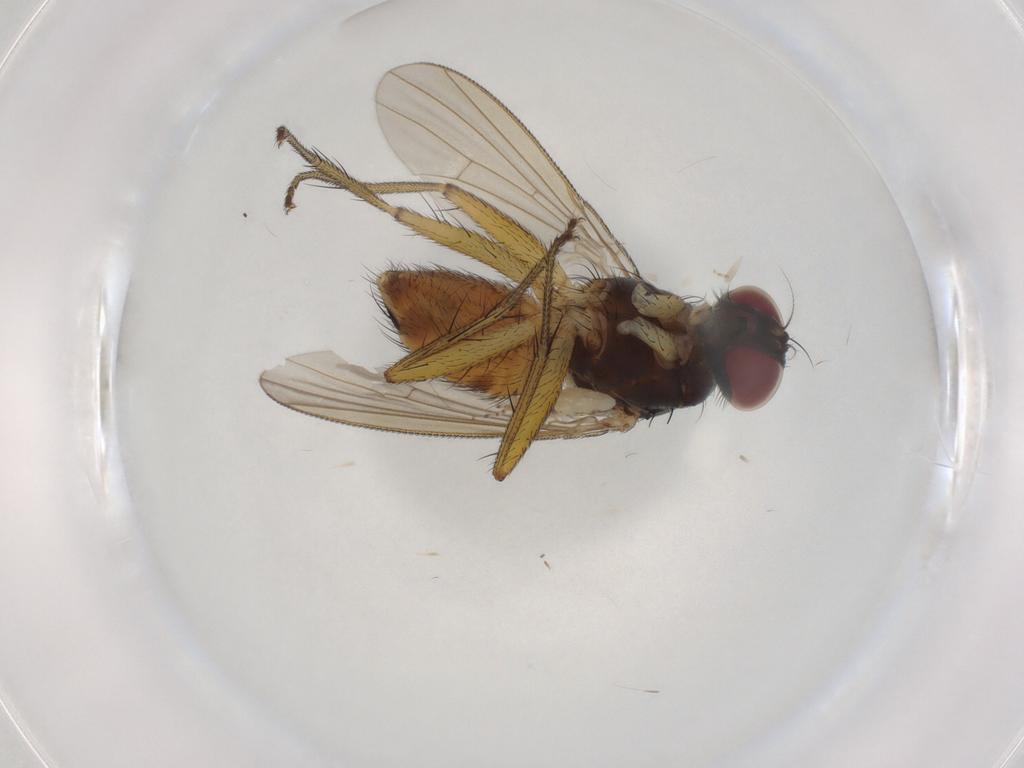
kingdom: Animalia
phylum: Arthropoda
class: Insecta
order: Diptera
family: Muscidae
